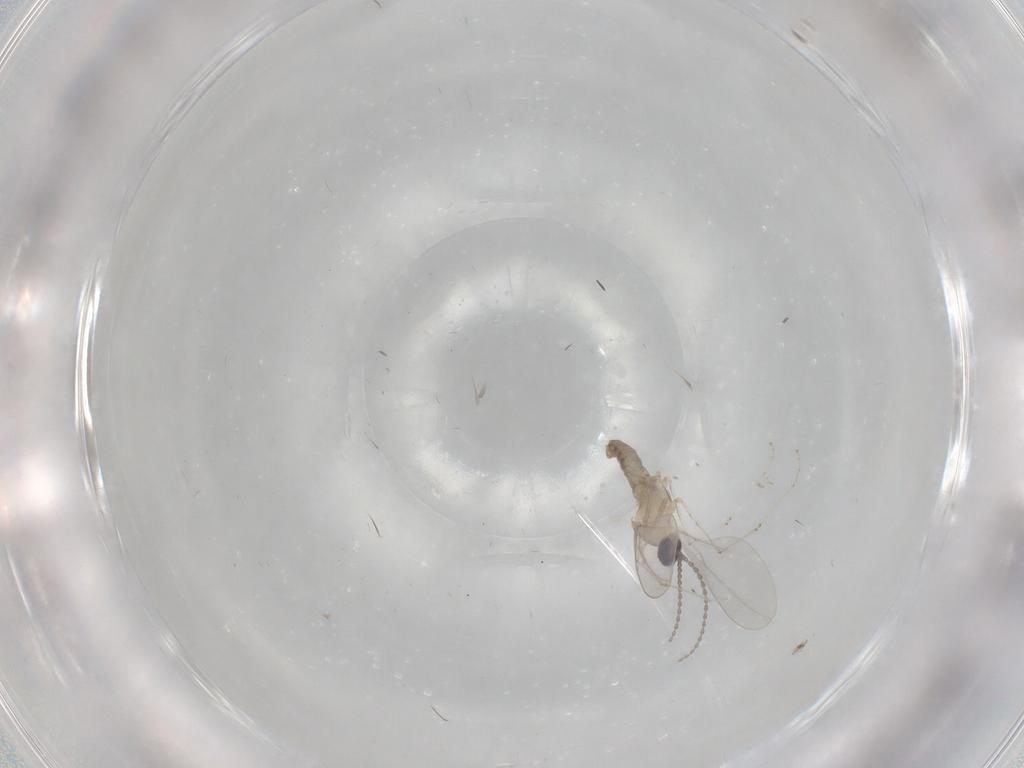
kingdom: Animalia
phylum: Arthropoda
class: Insecta
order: Diptera
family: Cecidomyiidae
